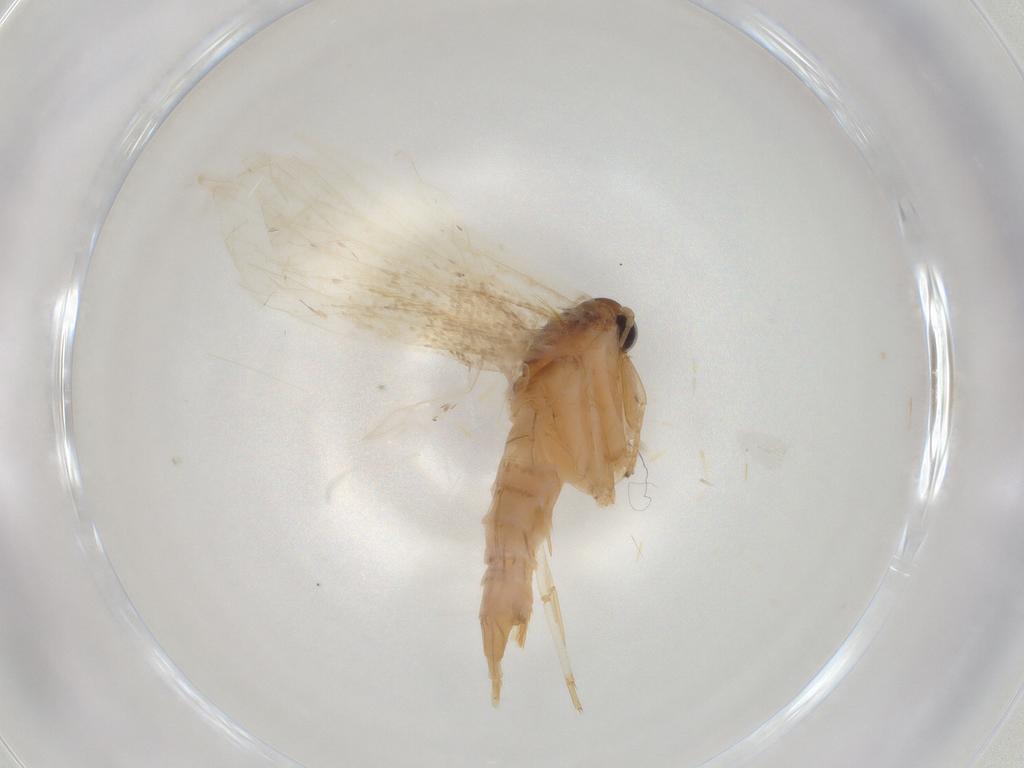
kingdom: Animalia
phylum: Arthropoda
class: Insecta
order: Lepidoptera
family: Depressariidae
